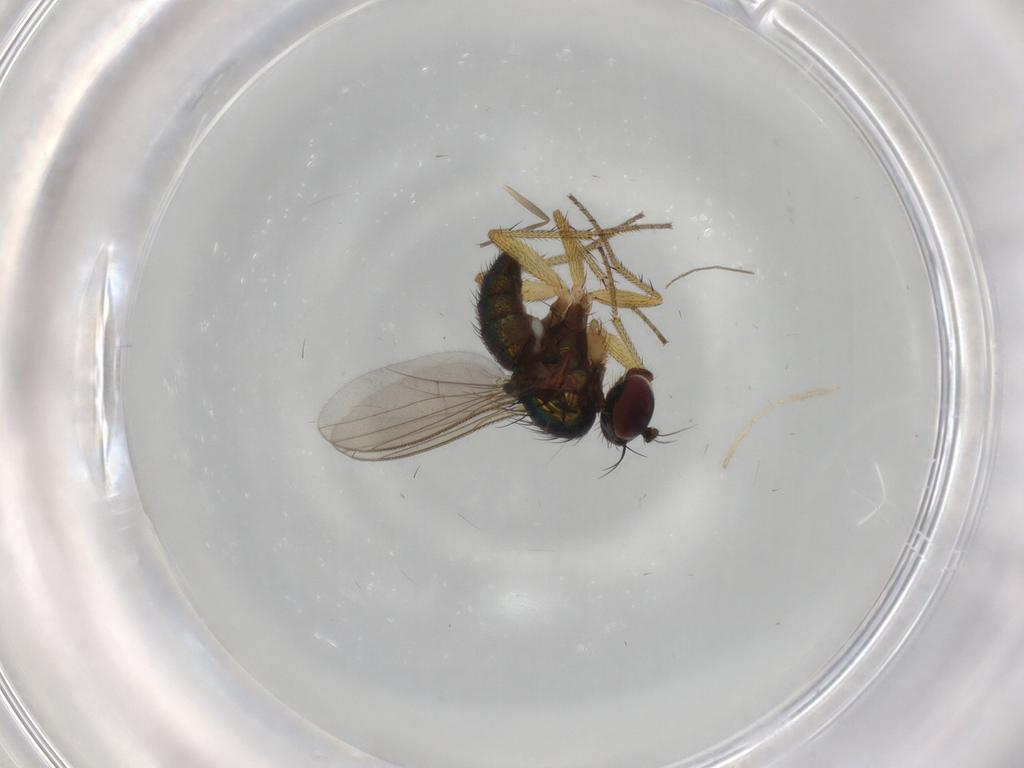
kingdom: Animalia
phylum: Arthropoda
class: Insecta
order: Diptera
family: Dolichopodidae
